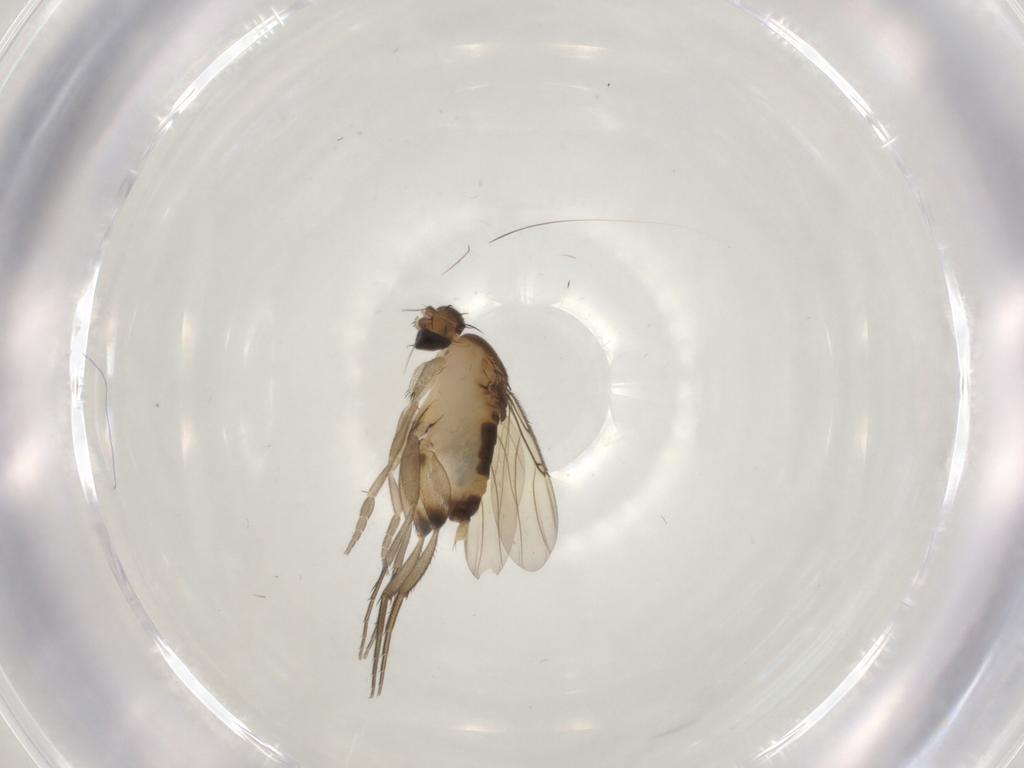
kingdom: Animalia
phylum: Arthropoda
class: Insecta
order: Diptera
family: Phoridae
